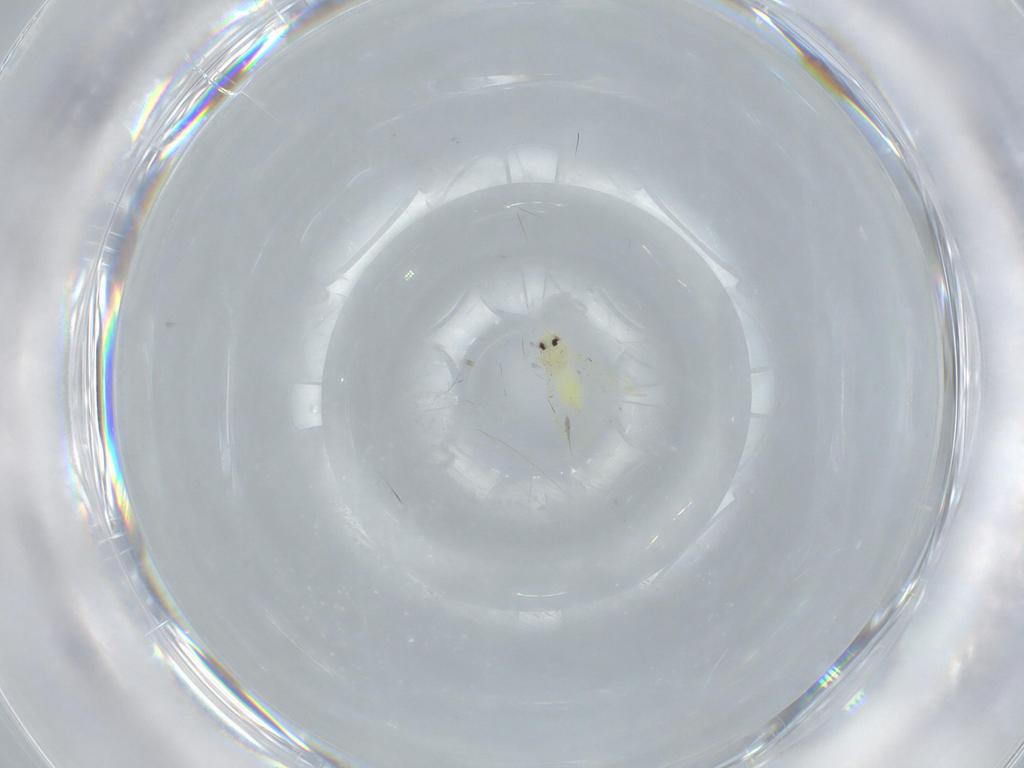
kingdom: Animalia
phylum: Arthropoda
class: Insecta
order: Hemiptera
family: Aleyrodidae
